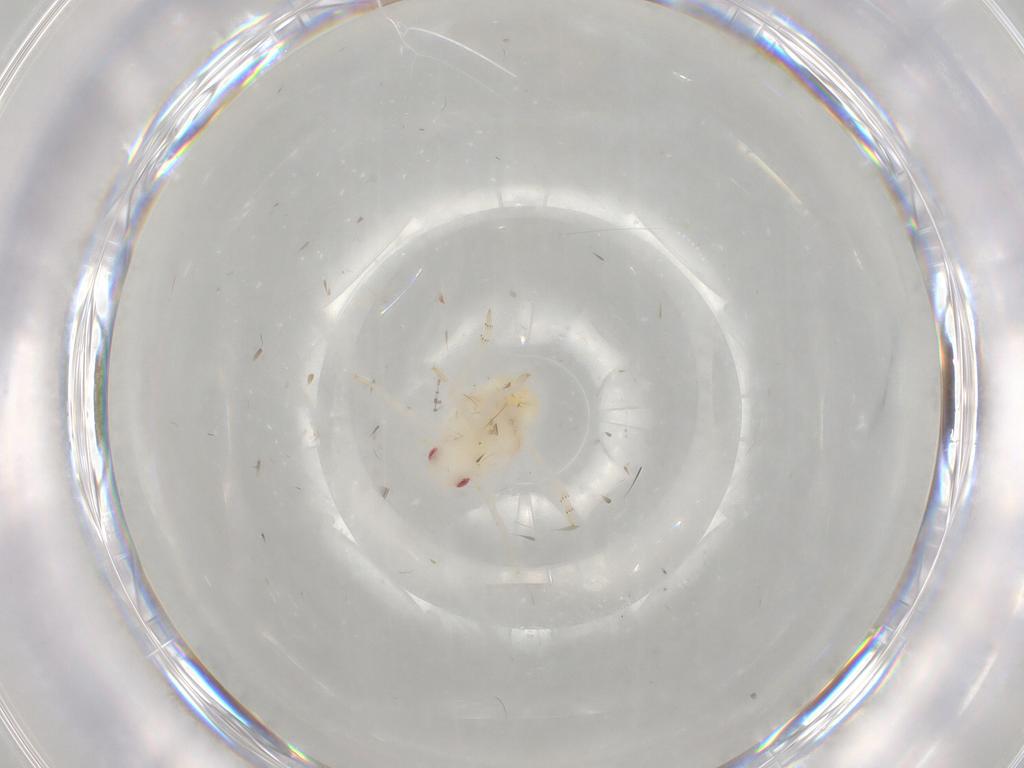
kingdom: Animalia
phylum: Arthropoda
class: Insecta
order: Hemiptera
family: Flatidae
